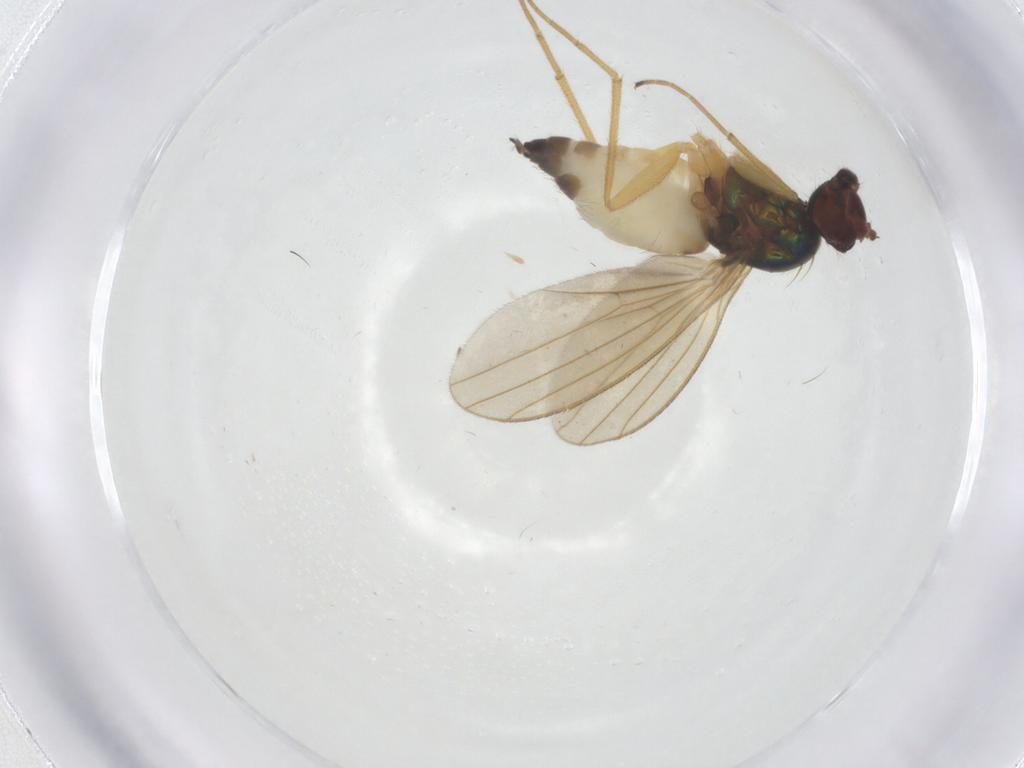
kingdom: Animalia
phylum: Arthropoda
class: Insecta
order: Diptera
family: Dolichopodidae
